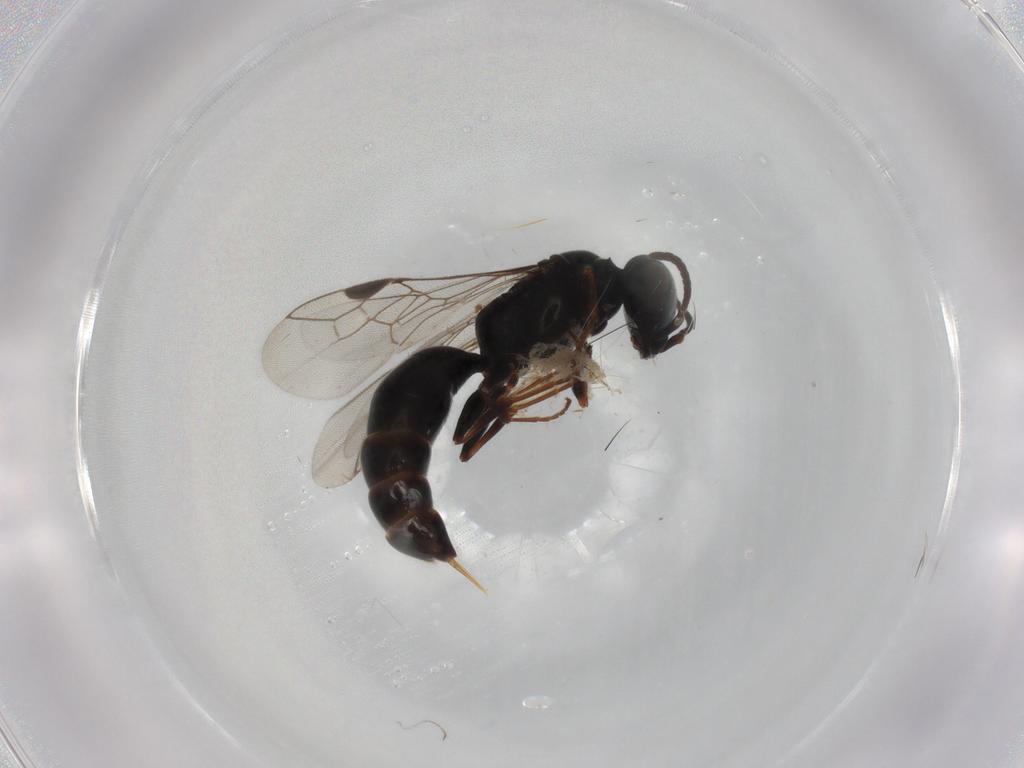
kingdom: Animalia
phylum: Arthropoda
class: Insecta
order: Hymenoptera
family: Pemphredonidae
